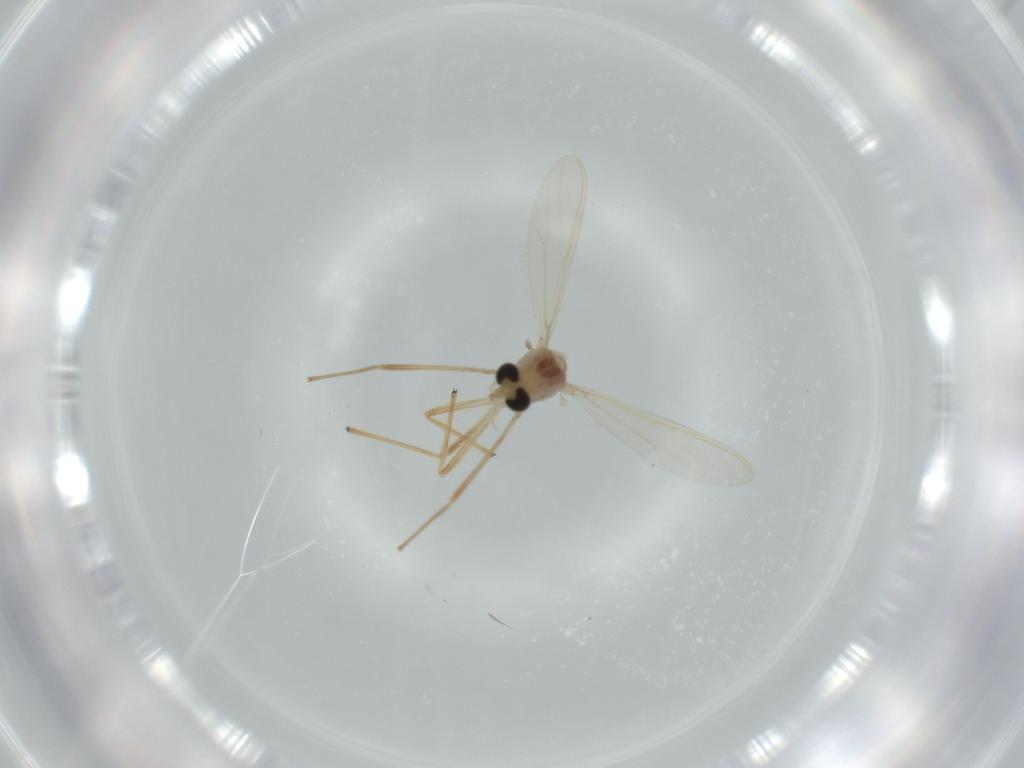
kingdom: Animalia
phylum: Arthropoda
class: Insecta
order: Diptera
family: Chironomidae
